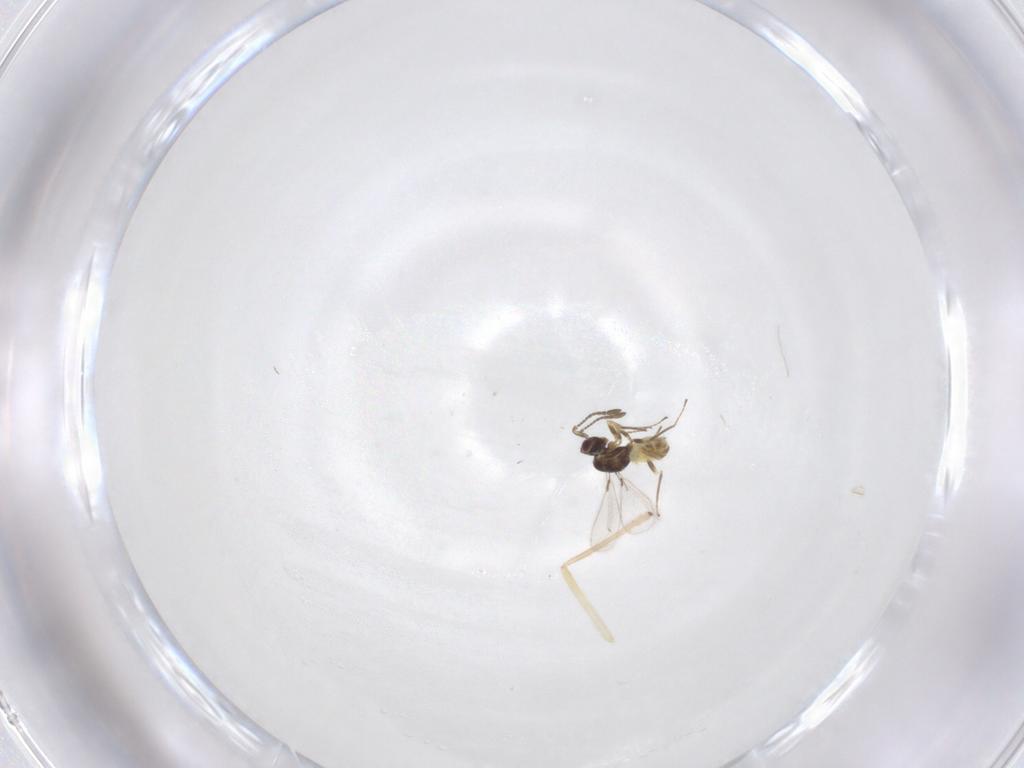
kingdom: Animalia
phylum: Arthropoda
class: Insecta
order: Hymenoptera
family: Mymaridae
